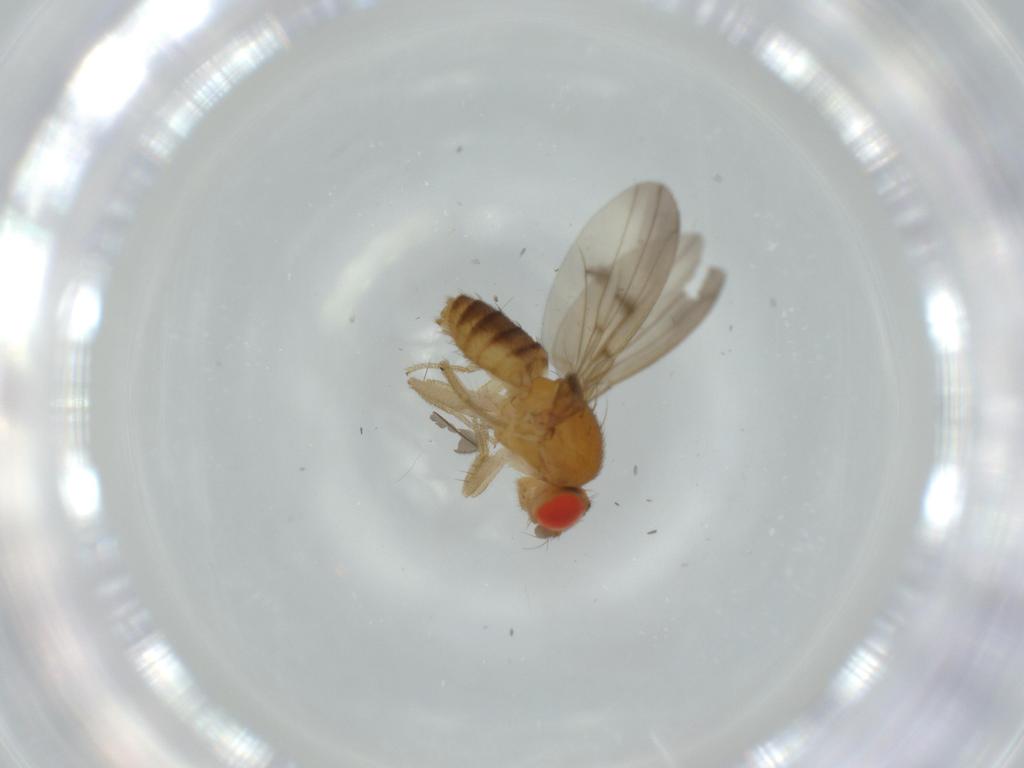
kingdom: Animalia
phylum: Arthropoda
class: Insecta
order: Diptera
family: Drosophilidae
